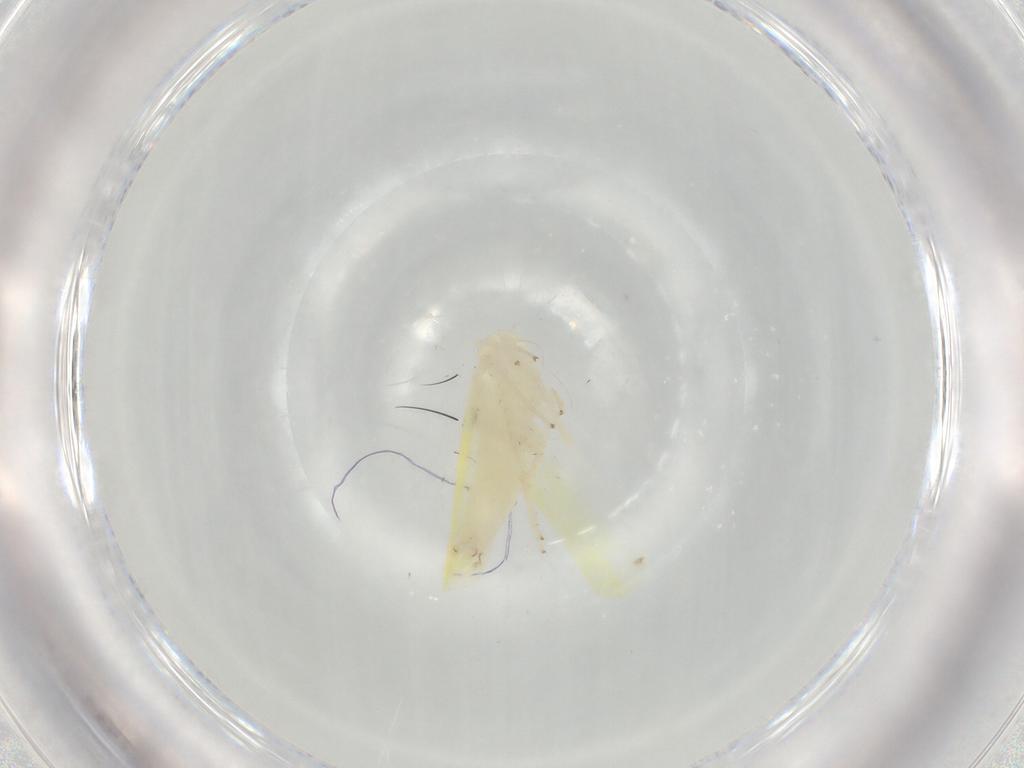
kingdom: Animalia
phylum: Arthropoda
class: Insecta
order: Hemiptera
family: Cicadellidae
